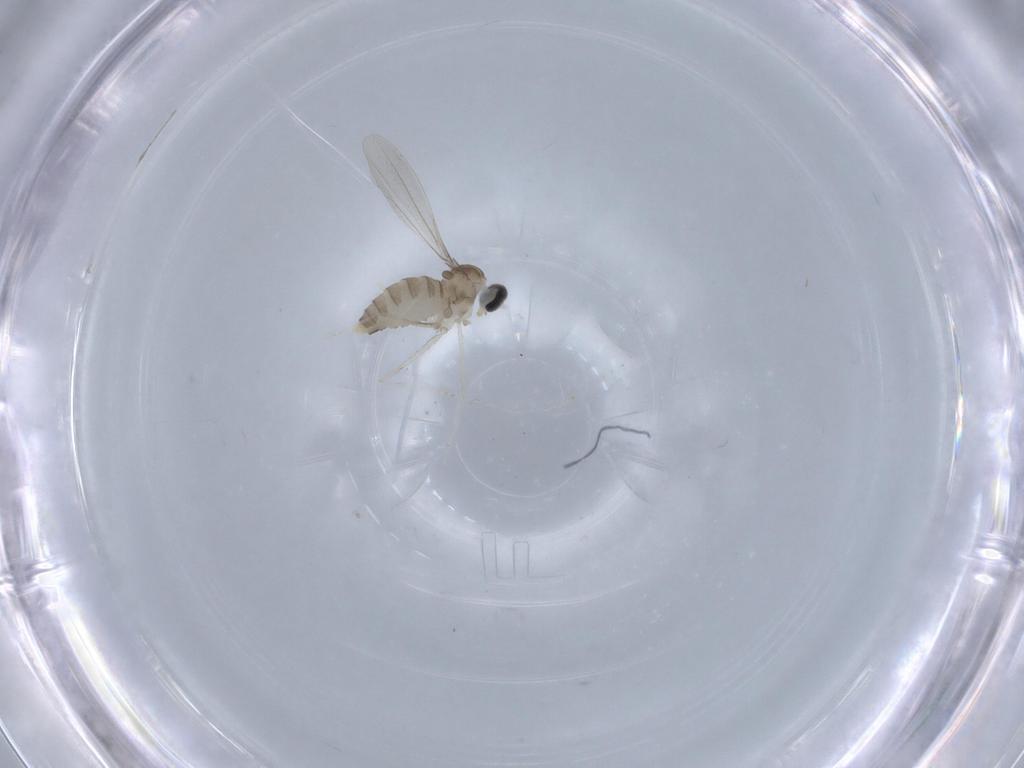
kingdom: Animalia
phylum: Arthropoda
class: Insecta
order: Diptera
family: Cecidomyiidae
